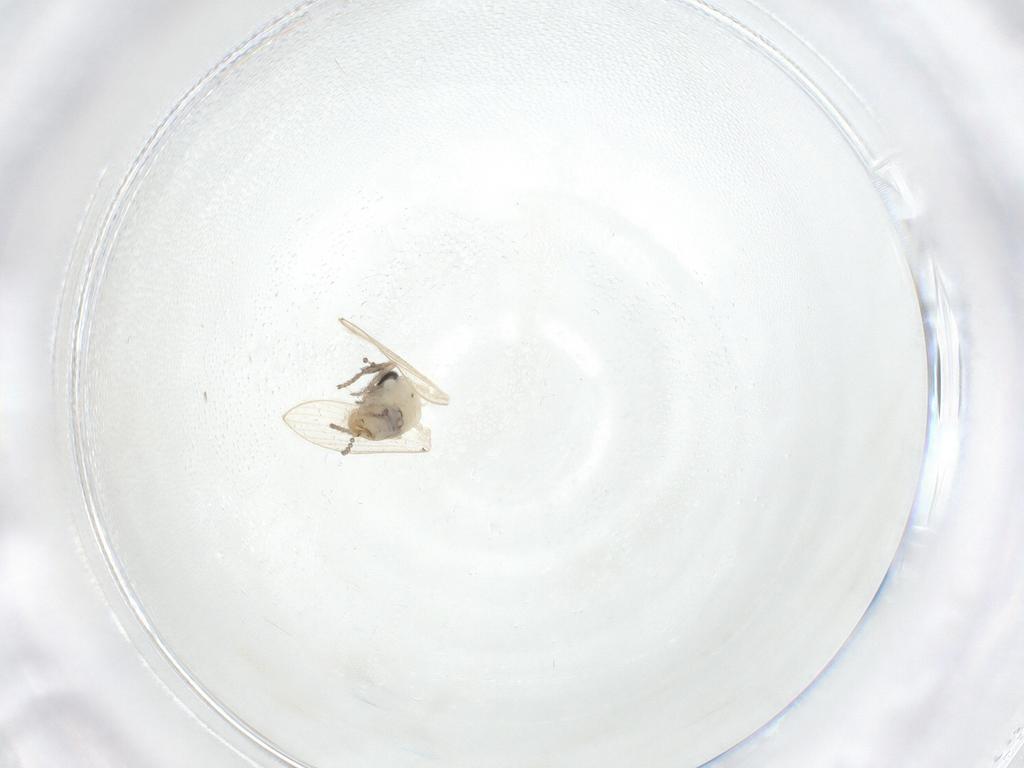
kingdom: Animalia
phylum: Arthropoda
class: Insecta
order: Diptera
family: Psychodidae
